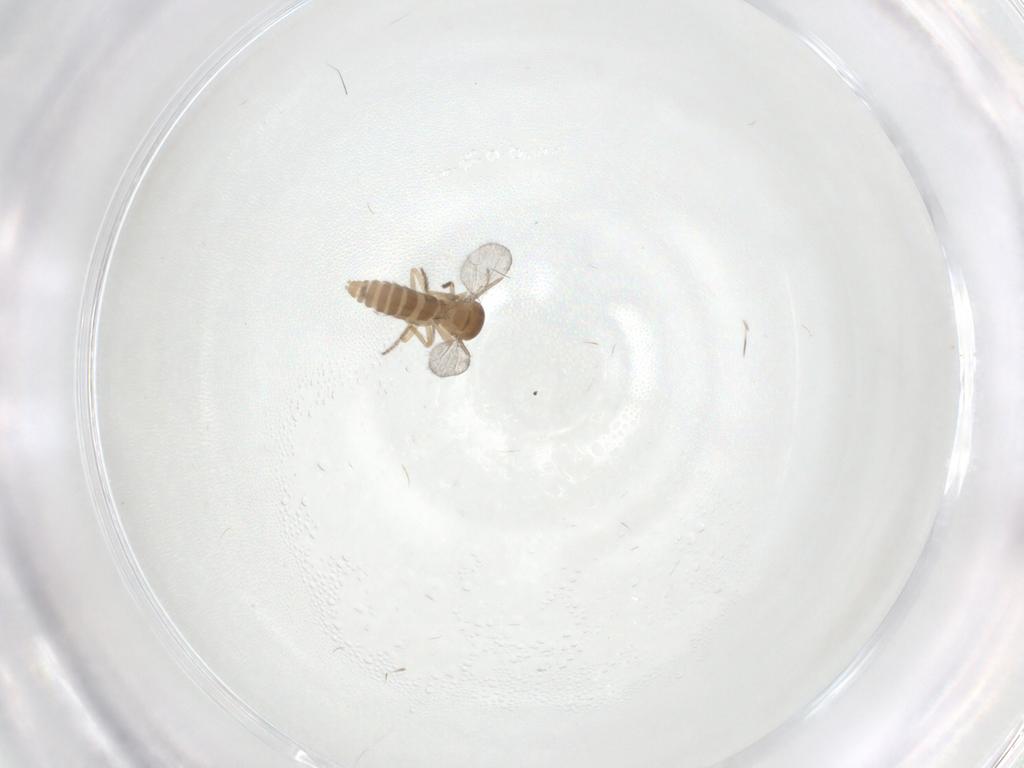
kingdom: Animalia
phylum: Arthropoda
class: Insecta
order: Diptera
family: Ceratopogonidae
